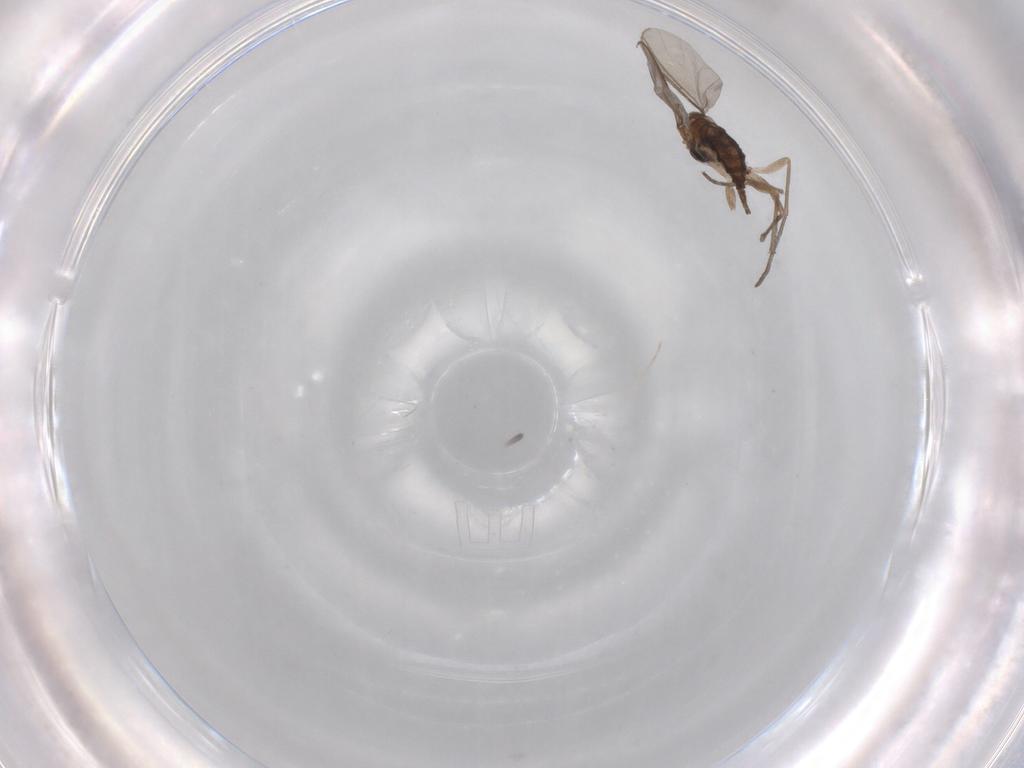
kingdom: Animalia
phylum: Arthropoda
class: Insecta
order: Diptera
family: Sciaridae
